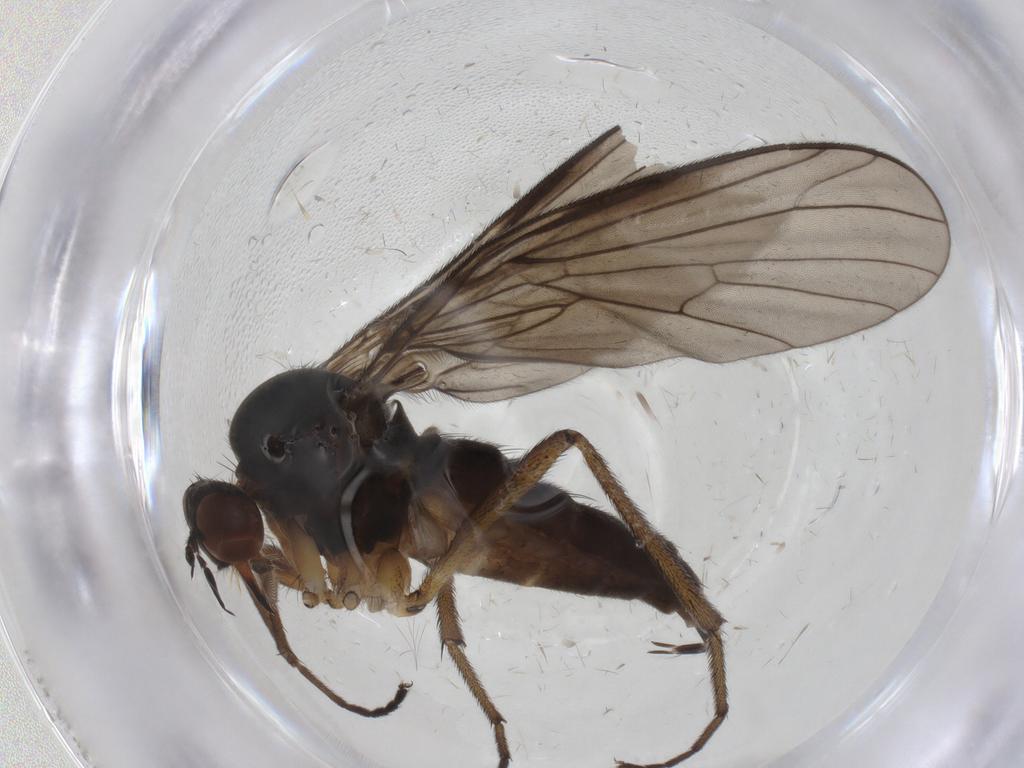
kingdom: Animalia
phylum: Arthropoda
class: Insecta
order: Diptera
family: Empididae
